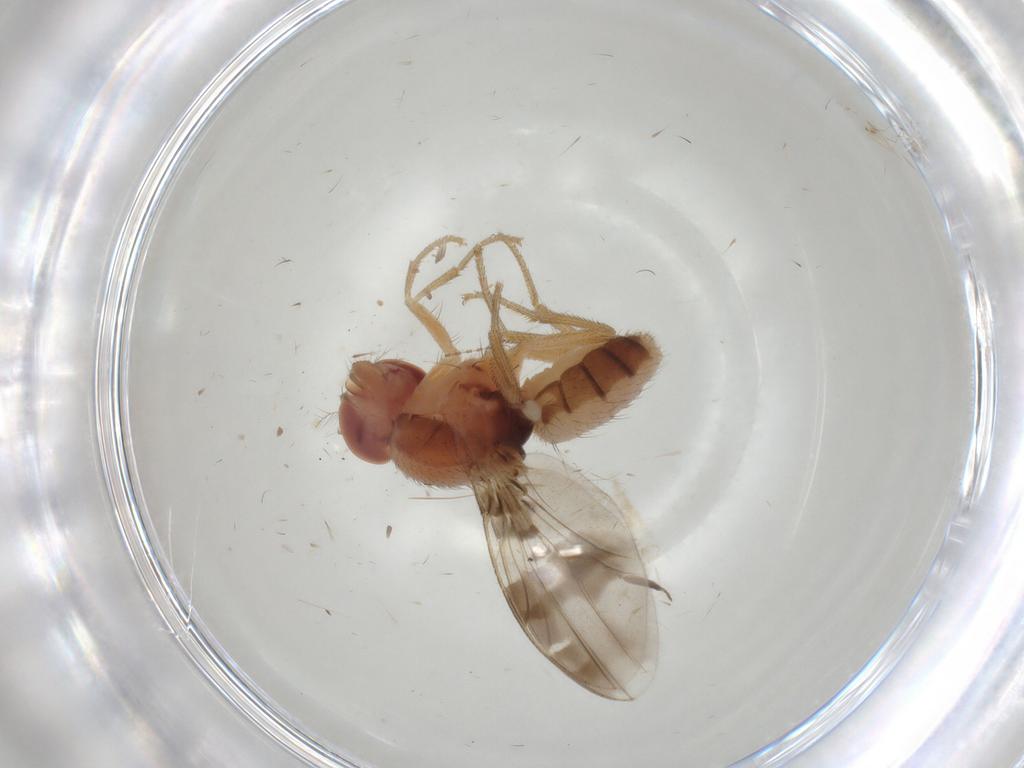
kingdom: Animalia
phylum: Arthropoda
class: Insecta
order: Diptera
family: Drosophilidae
